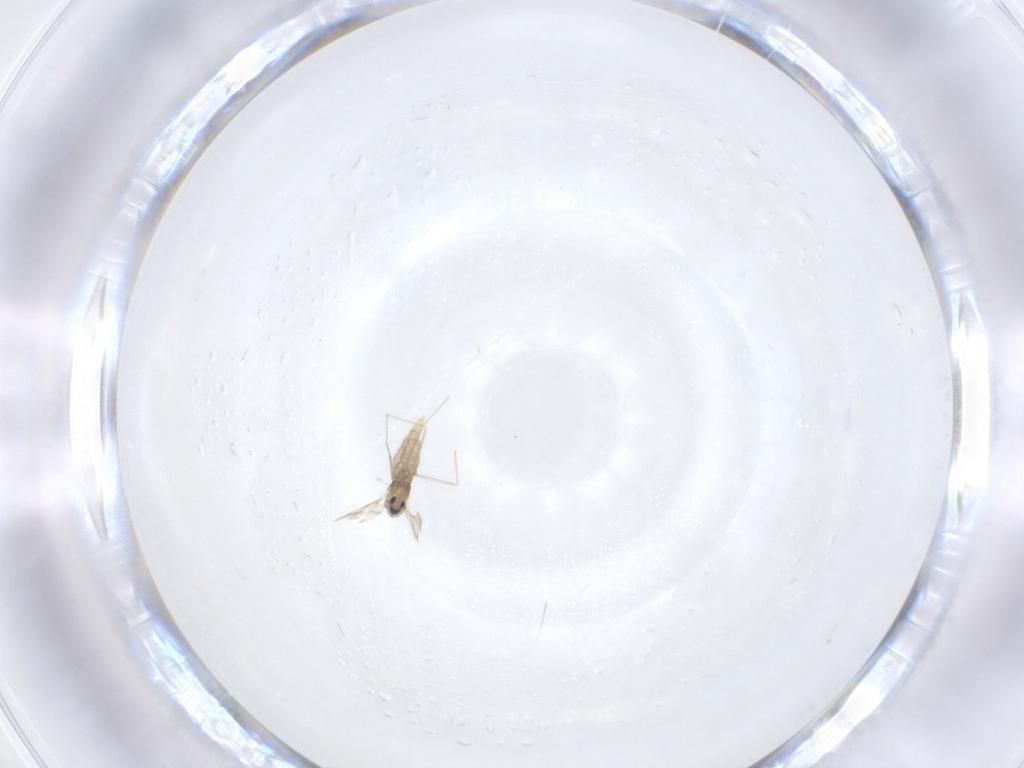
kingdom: Animalia
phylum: Arthropoda
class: Insecta
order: Diptera
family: Cecidomyiidae
